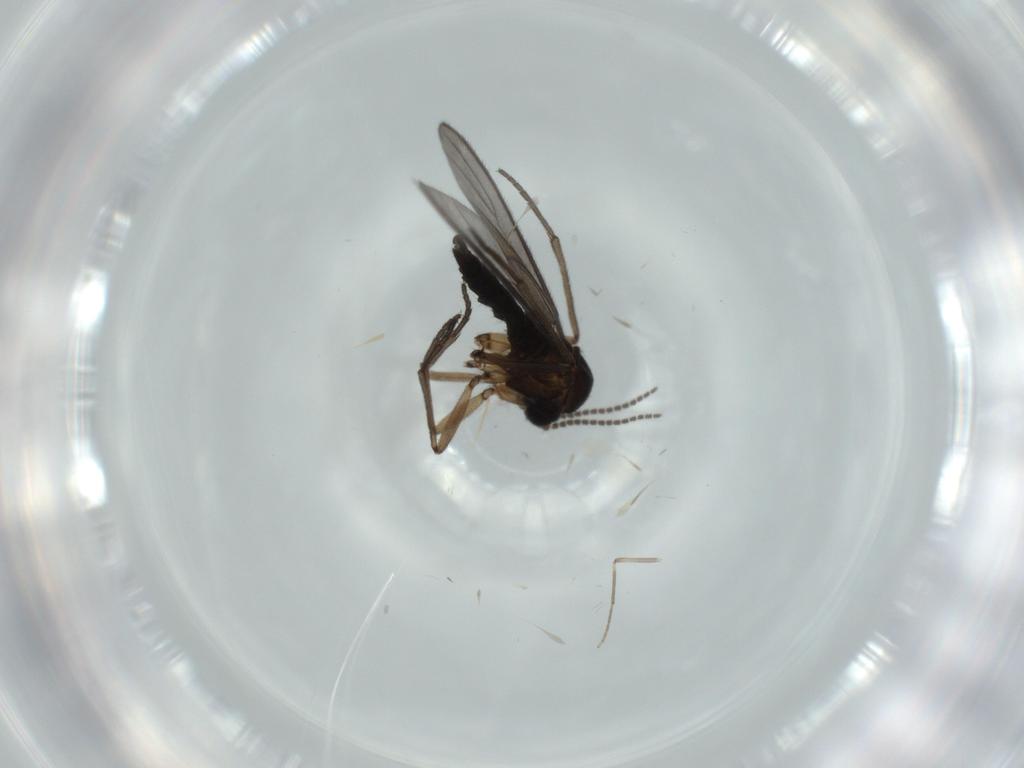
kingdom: Animalia
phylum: Arthropoda
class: Insecta
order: Diptera
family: Sciaridae
